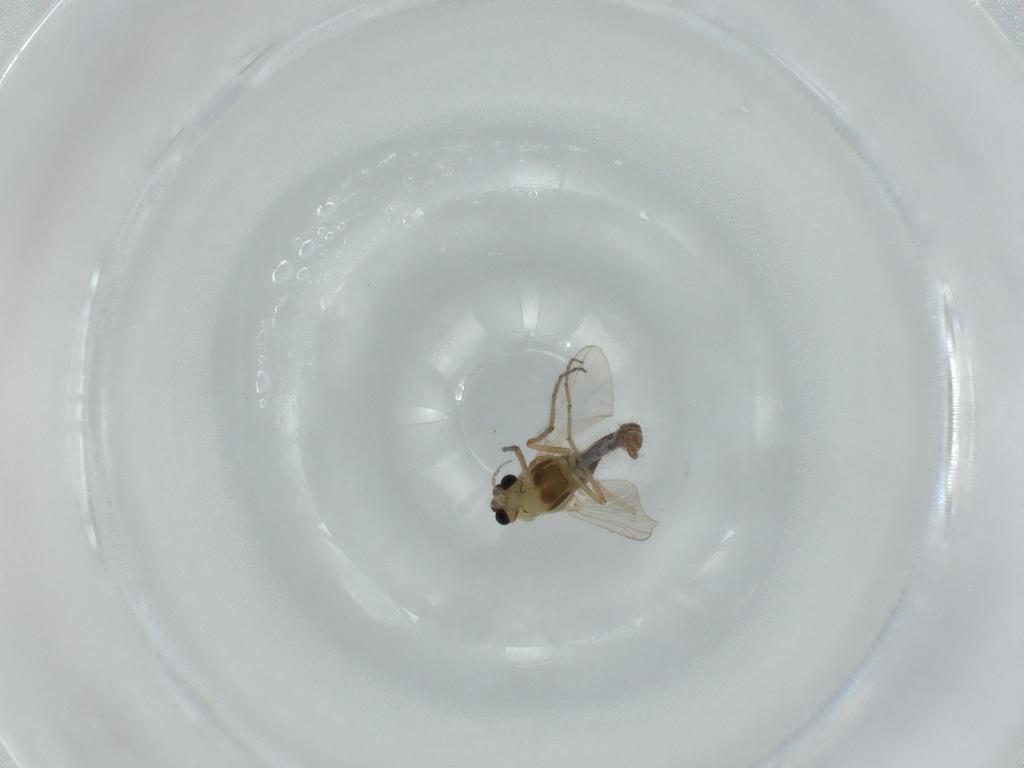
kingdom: Animalia
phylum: Arthropoda
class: Insecta
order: Diptera
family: Chironomidae
